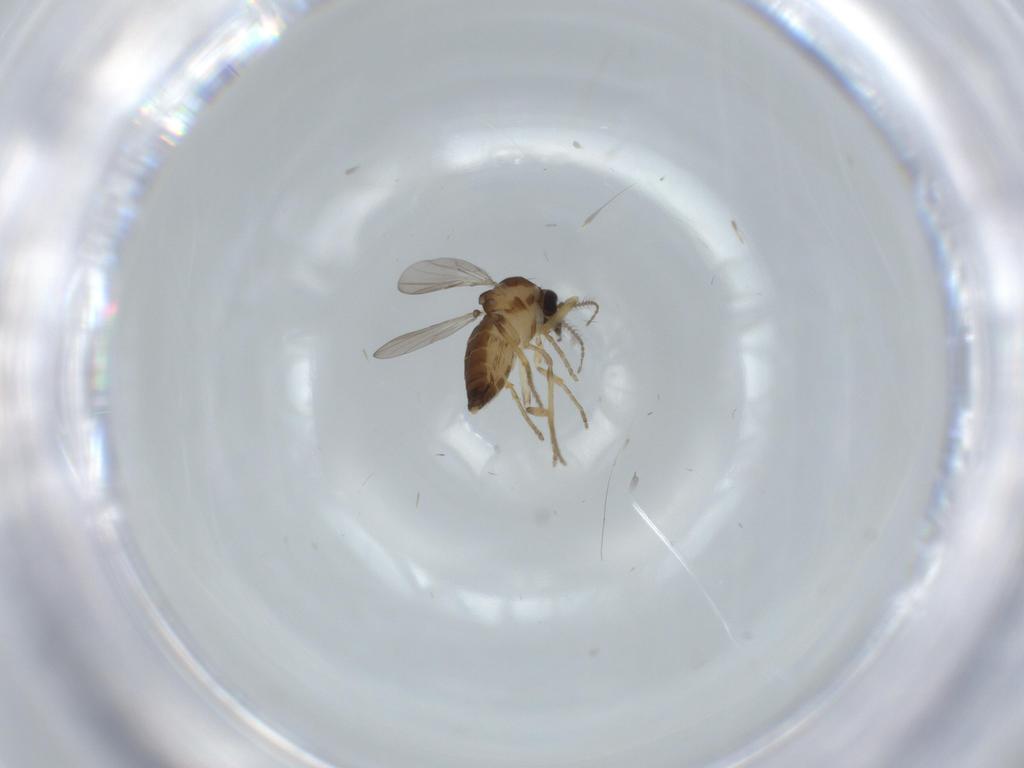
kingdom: Animalia
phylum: Arthropoda
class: Insecta
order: Diptera
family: Ceratopogonidae
